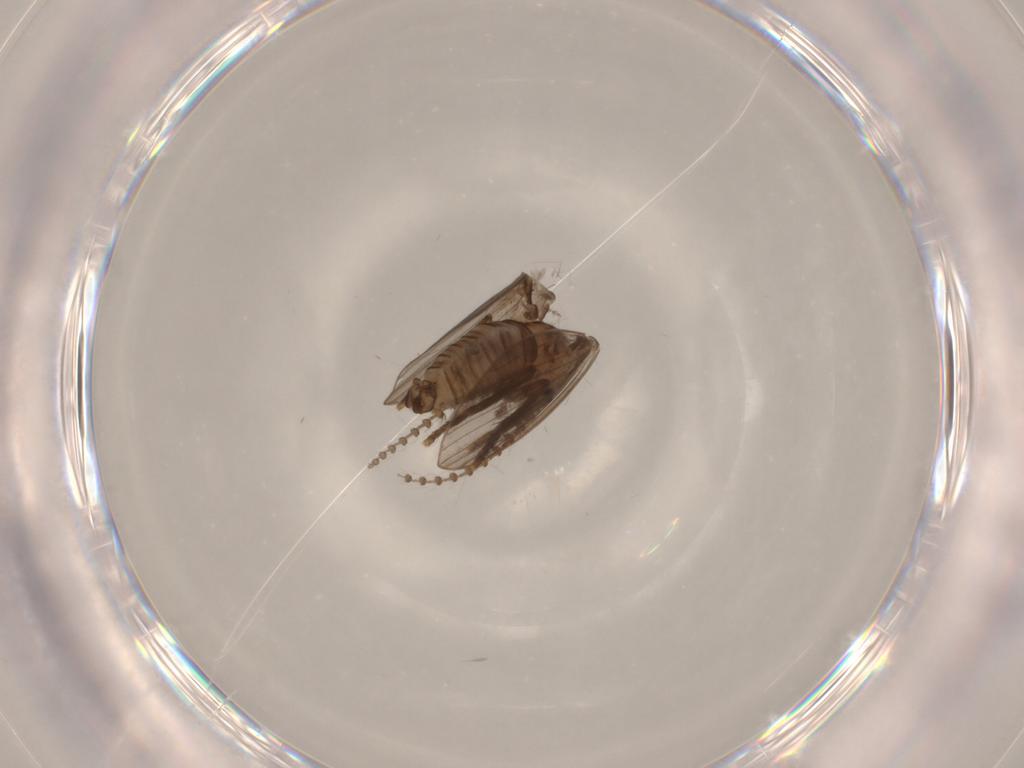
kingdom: Animalia
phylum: Arthropoda
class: Insecta
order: Diptera
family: Psychodidae
